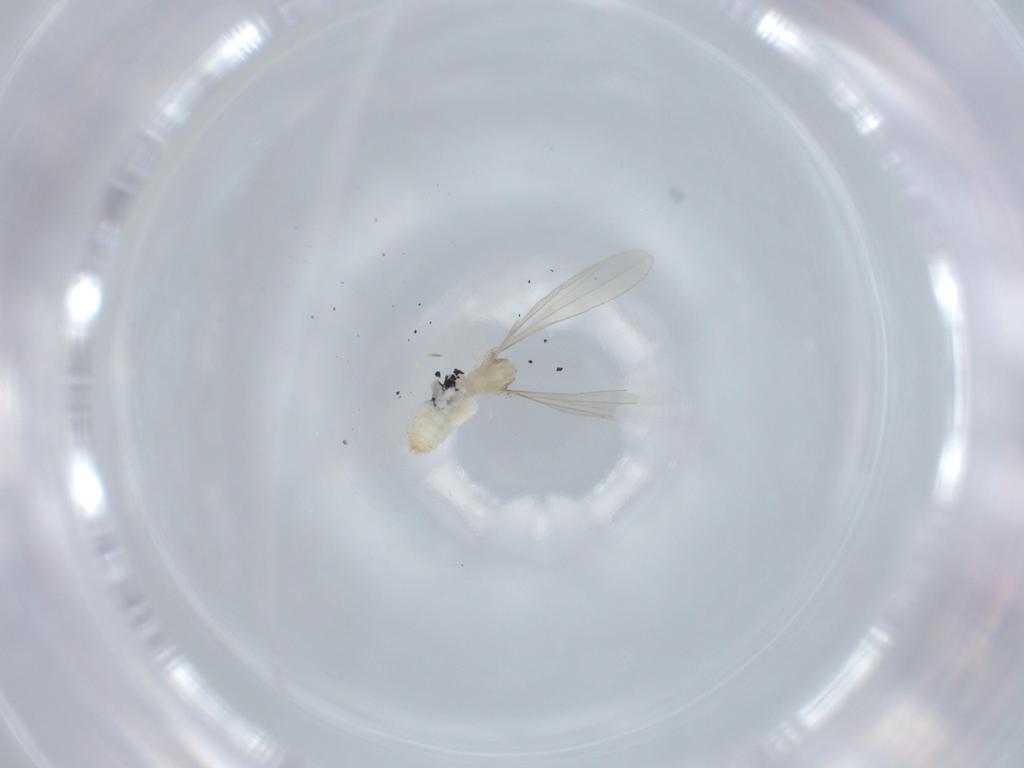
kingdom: Animalia
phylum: Arthropoda
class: Insecta
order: Diptera
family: Cecidomyiidae
